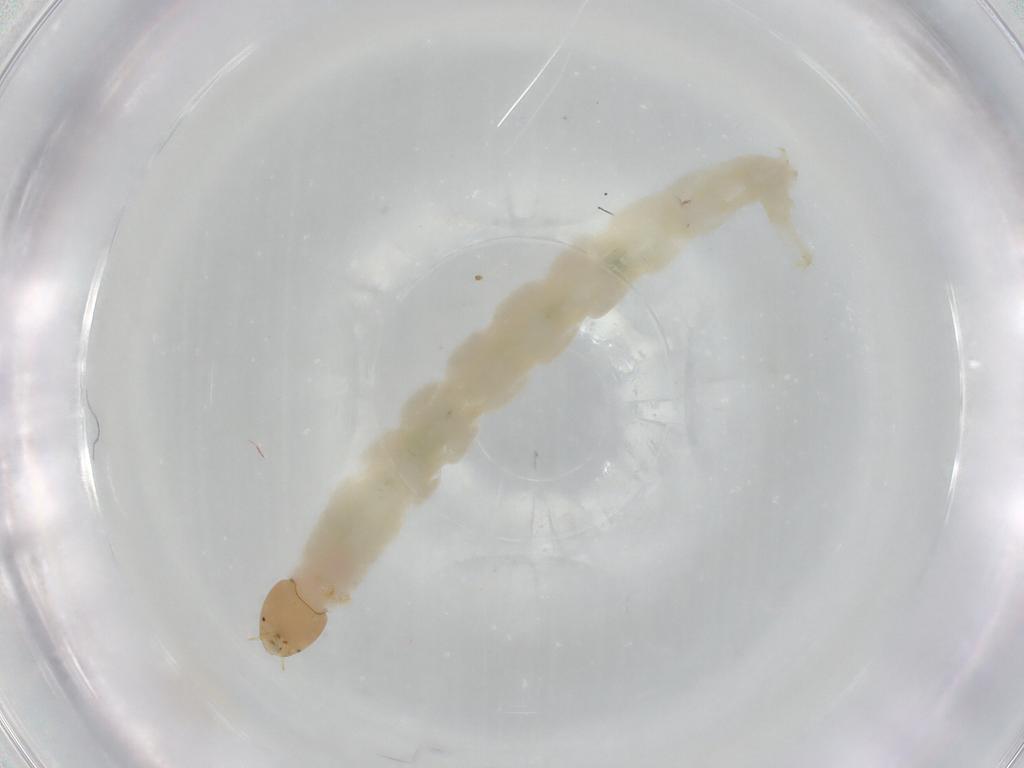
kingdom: Animalia
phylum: Arthropoda
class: Insecta
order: Diptera
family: Chironomidae
